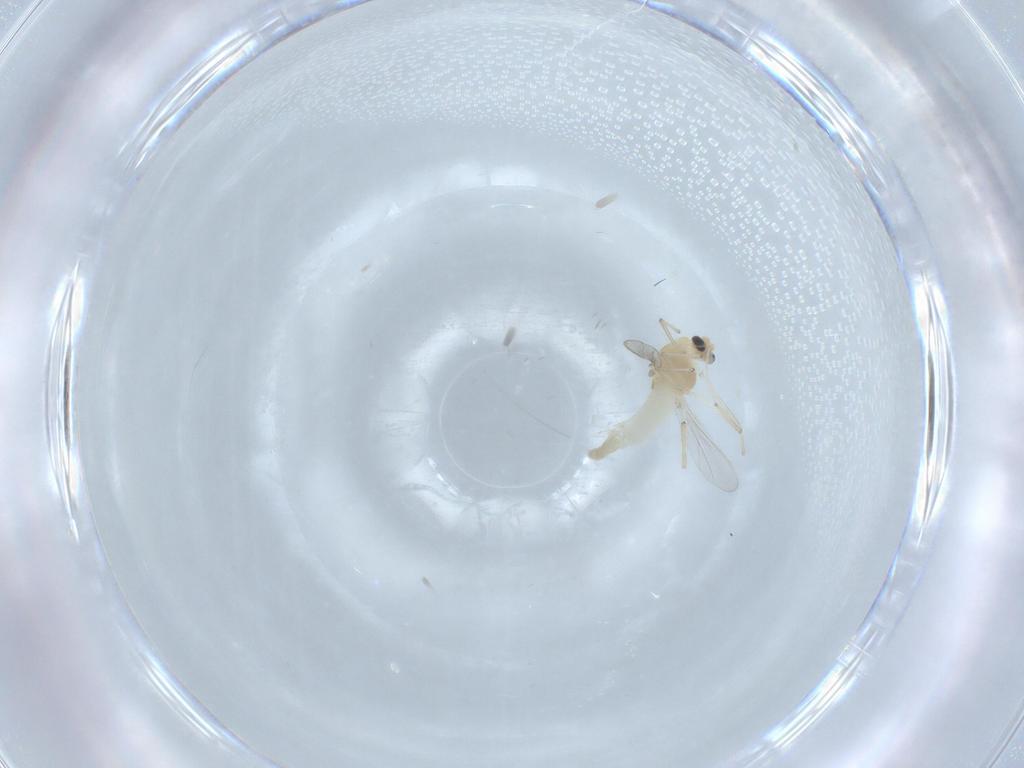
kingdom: Animalia
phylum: Arthropoda
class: Insecta
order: Diptera
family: Chironomidae
